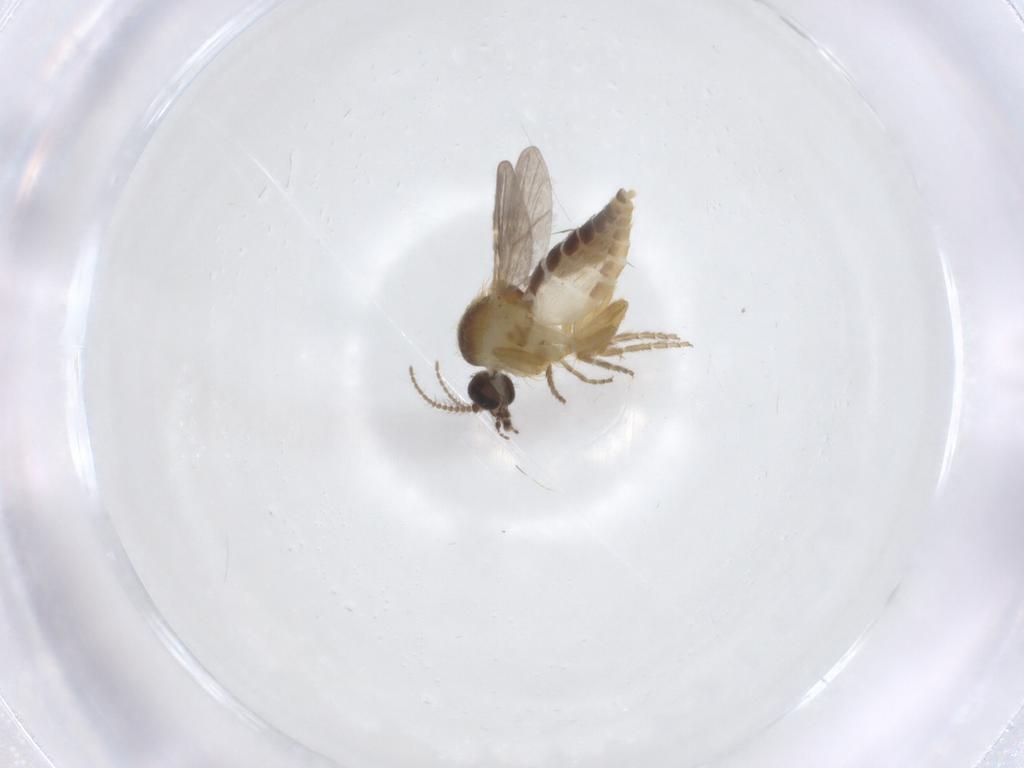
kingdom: Animalia
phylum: Arthropoda
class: Insecta
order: Diptera
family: Ceratopogonidae
